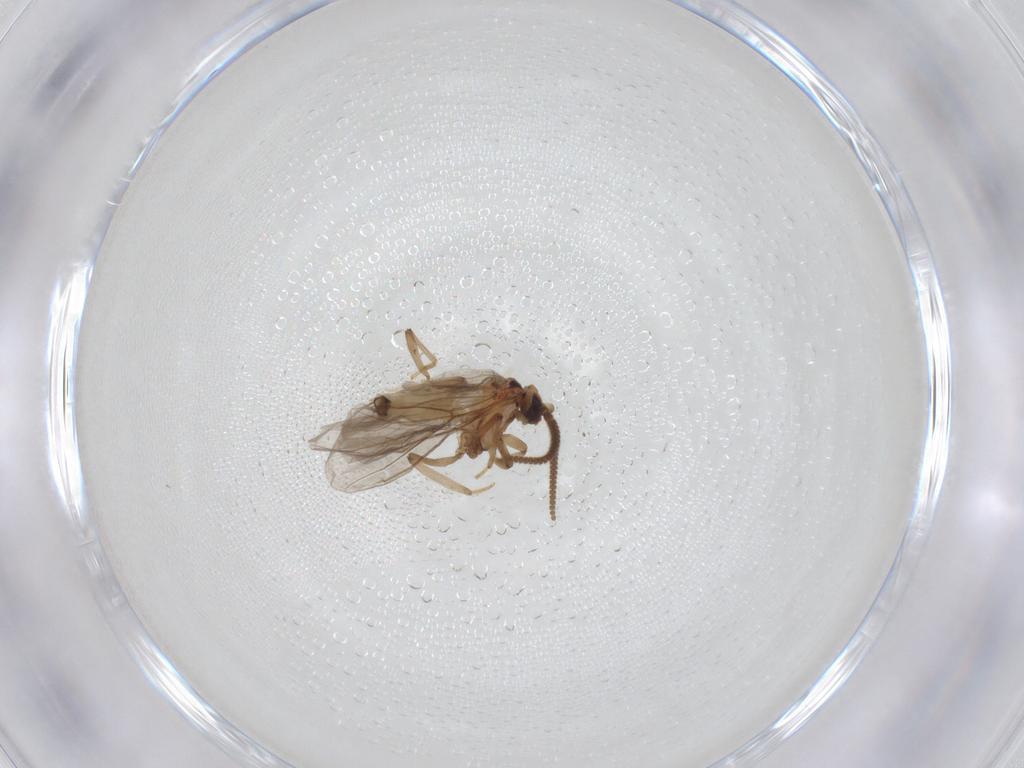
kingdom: Animalia
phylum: Arthropoda
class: Insecta
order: Neuroptera
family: Coniopterygidae
